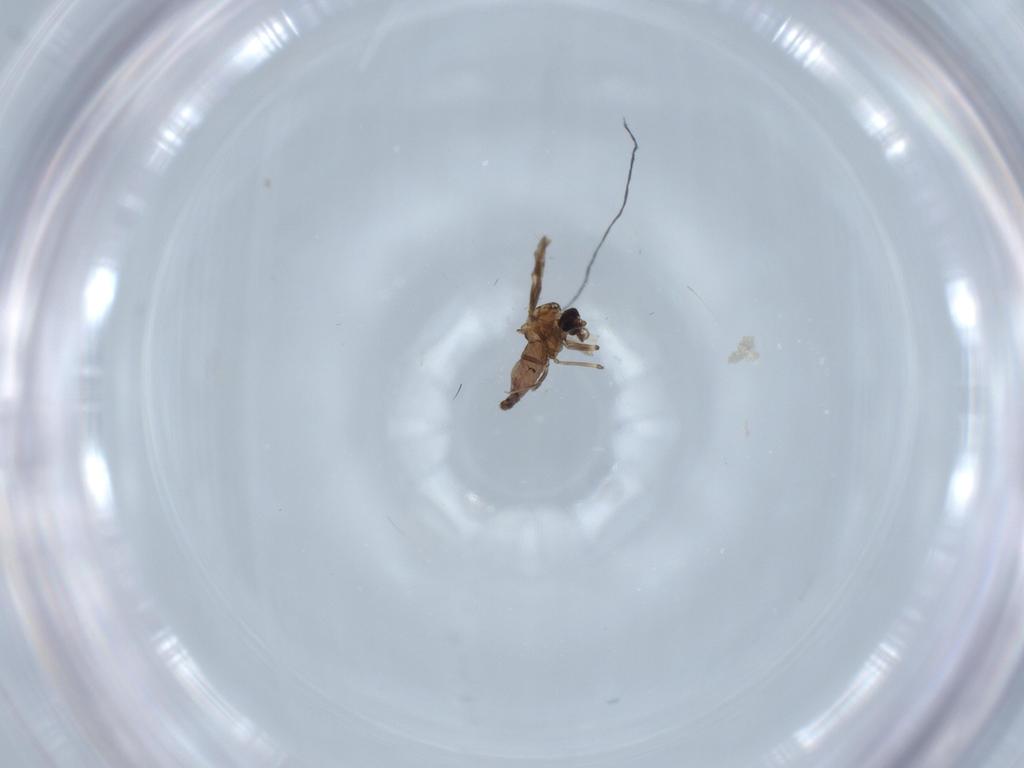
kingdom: Animalia
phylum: Arthropoda
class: Insecta
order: Diptera
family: Ceratopogonidae
